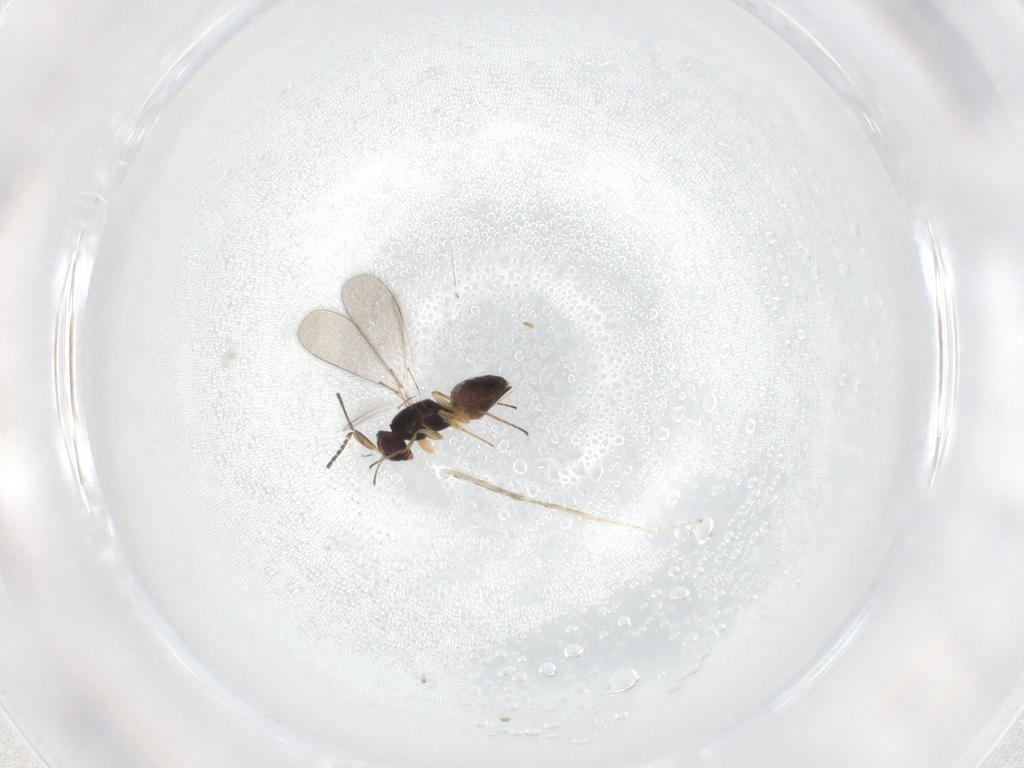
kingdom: Animalia
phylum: Arthropoda
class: Insecta
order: Hymenoptera
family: Mymaridae
